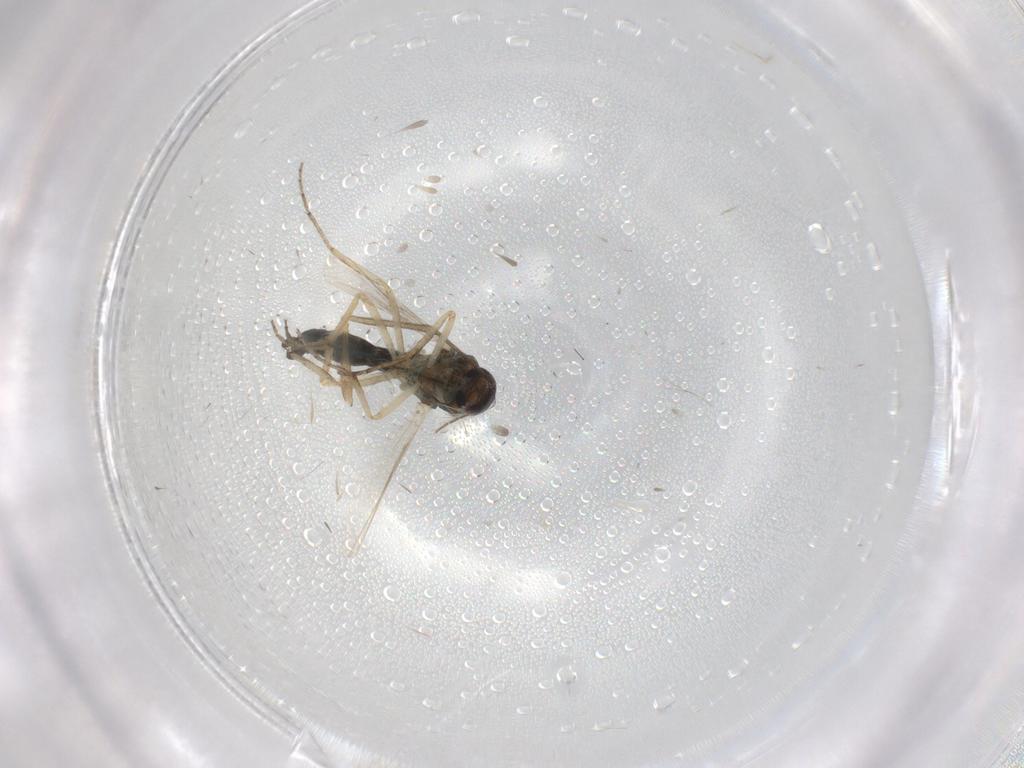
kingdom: Animalia
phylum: Arthropoda
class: Insecta
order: Diptera
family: Ceratopogonidae
